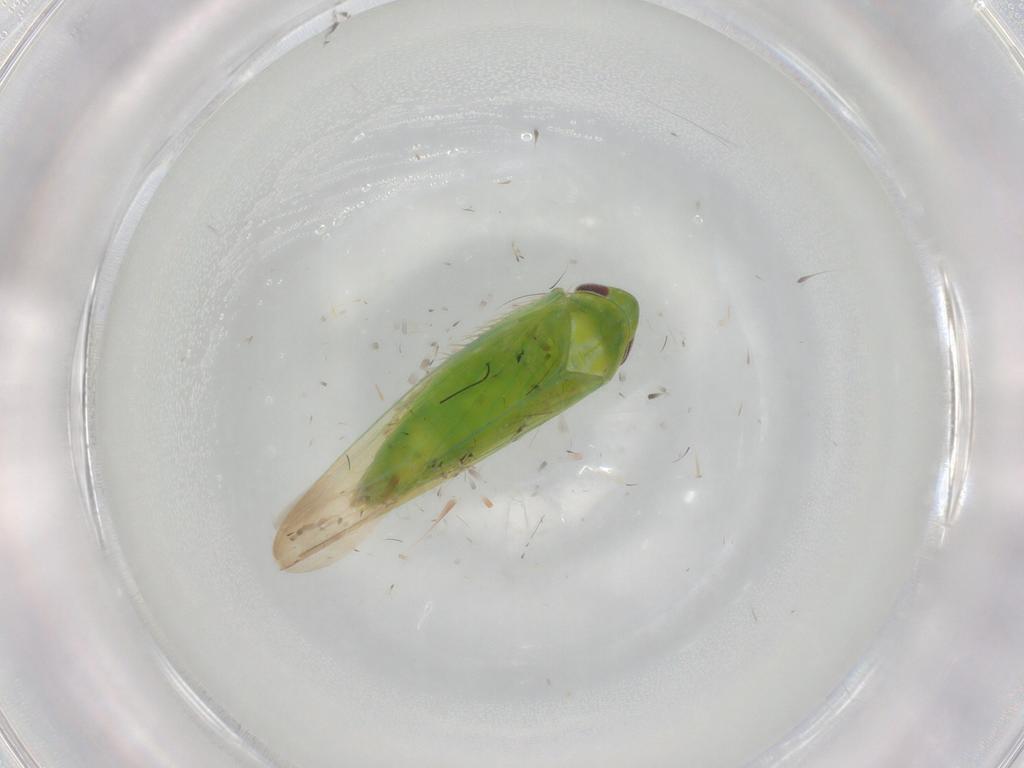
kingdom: Animalia
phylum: Arthropoda
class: Insecta
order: Hemiptera
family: Cicadellidae
